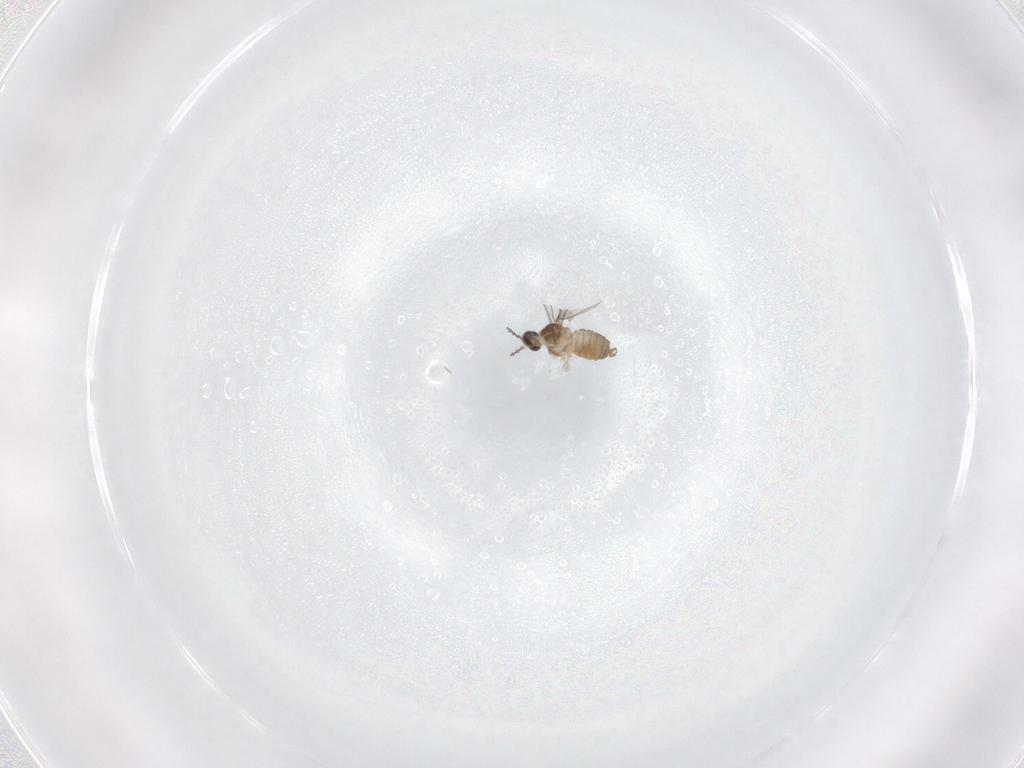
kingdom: Animalia
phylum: Arthropoda
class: Insecta
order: Diptera
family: Cecidomyiidae
